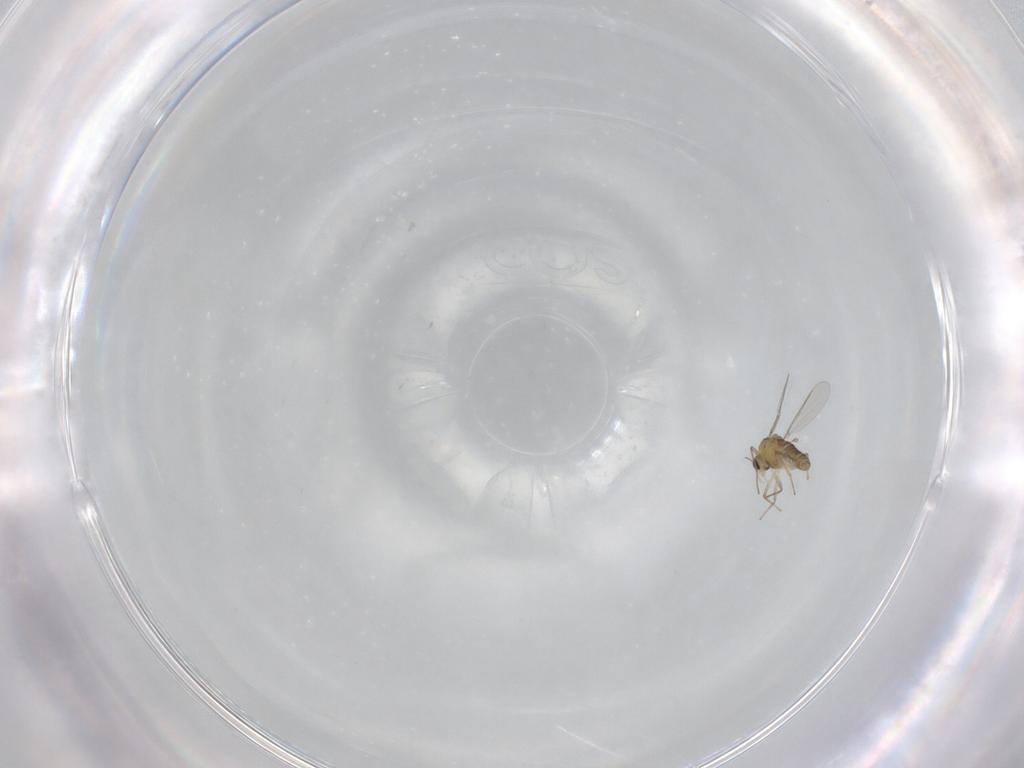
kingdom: Animalia
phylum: Arthropoda
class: Insecta
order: Diptera
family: Chironomidae
